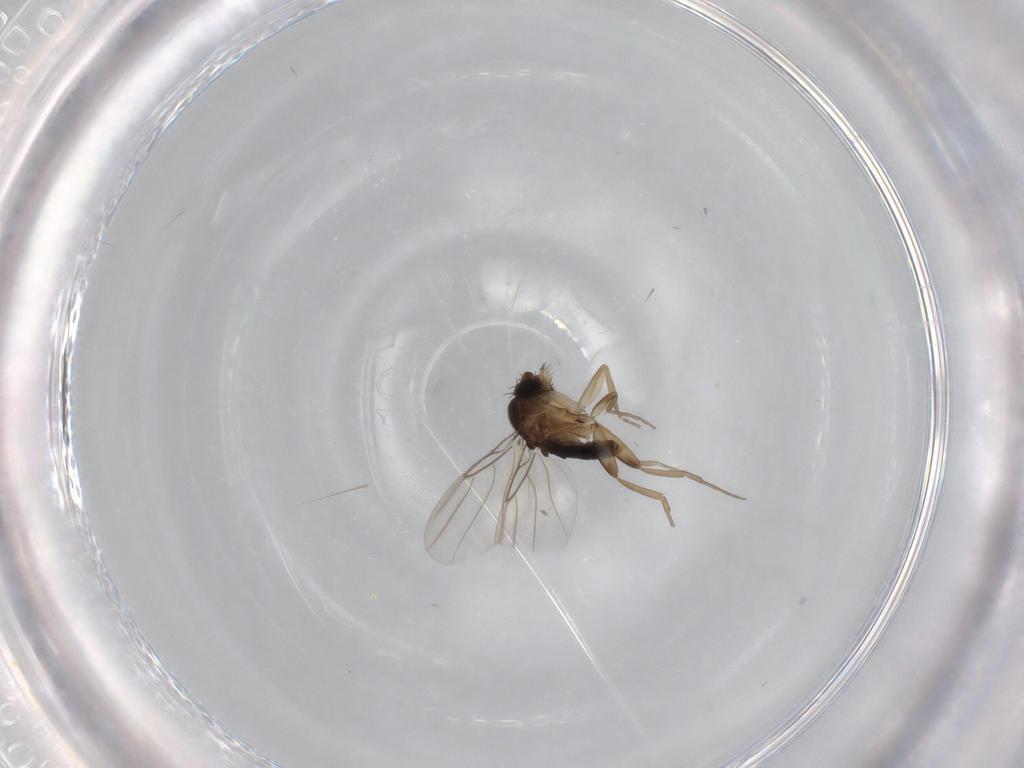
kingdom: Animalia
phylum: Arthropoda
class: Insecta
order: Diptera
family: Phoridae
